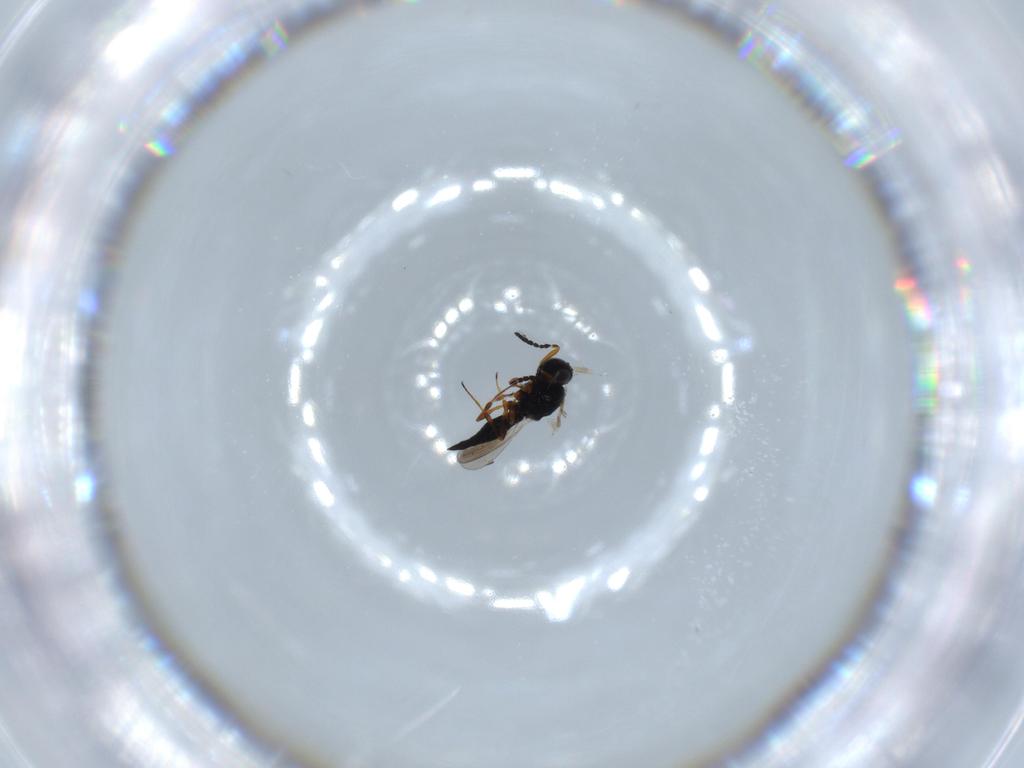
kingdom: Animalia
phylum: Arthropoda
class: Insecta
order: Hymenoptera
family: Platygastridae
